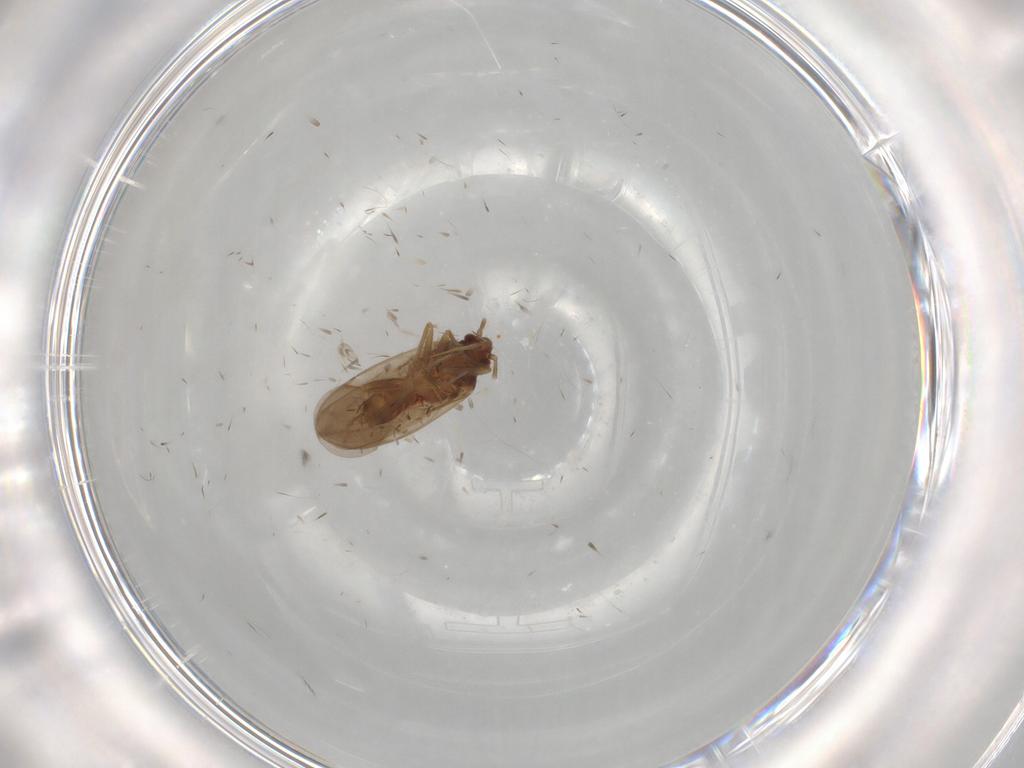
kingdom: Animalia
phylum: Arthropoda
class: Insecta
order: Hemiptera
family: Ceratocombidae
